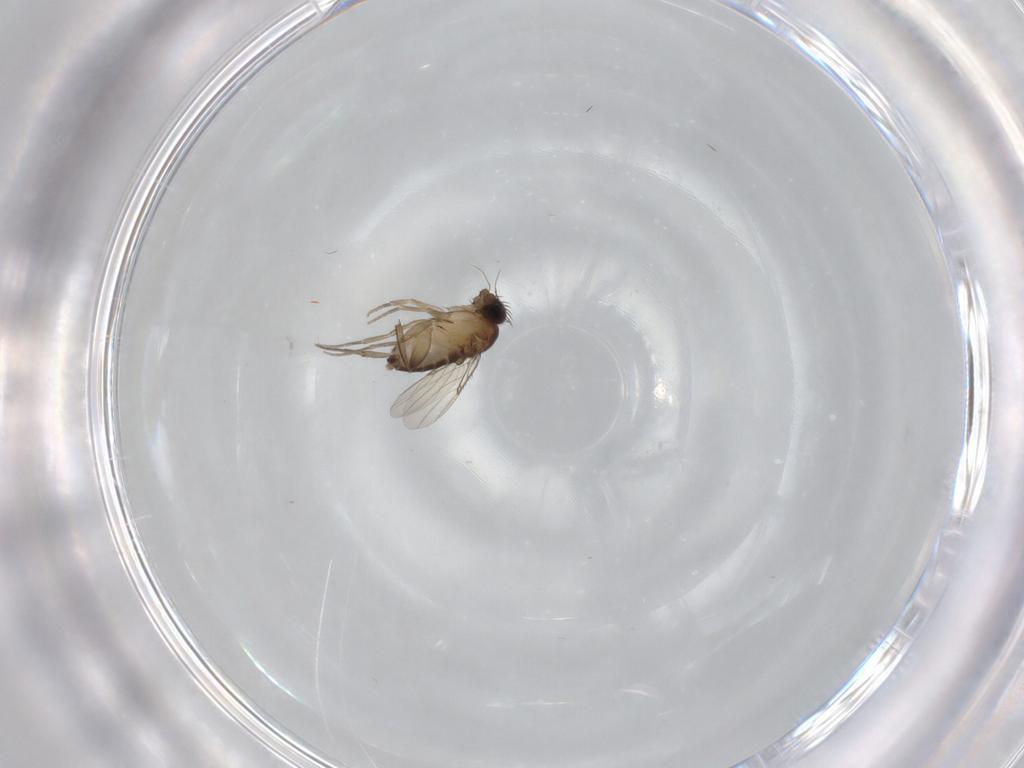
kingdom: Animalia
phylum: Arthropoda
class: Insecta
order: Diptera
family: Phoridae
